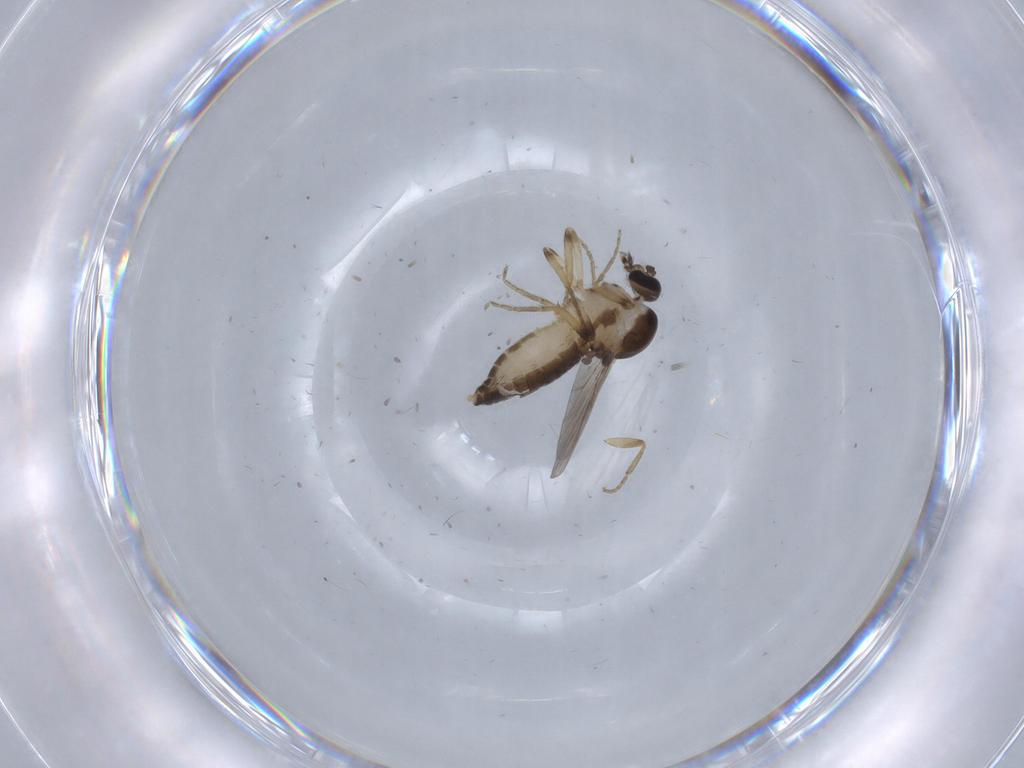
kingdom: Animalia
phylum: Arthropoda
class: Insecta
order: Diptera
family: Ceratopogonidae
